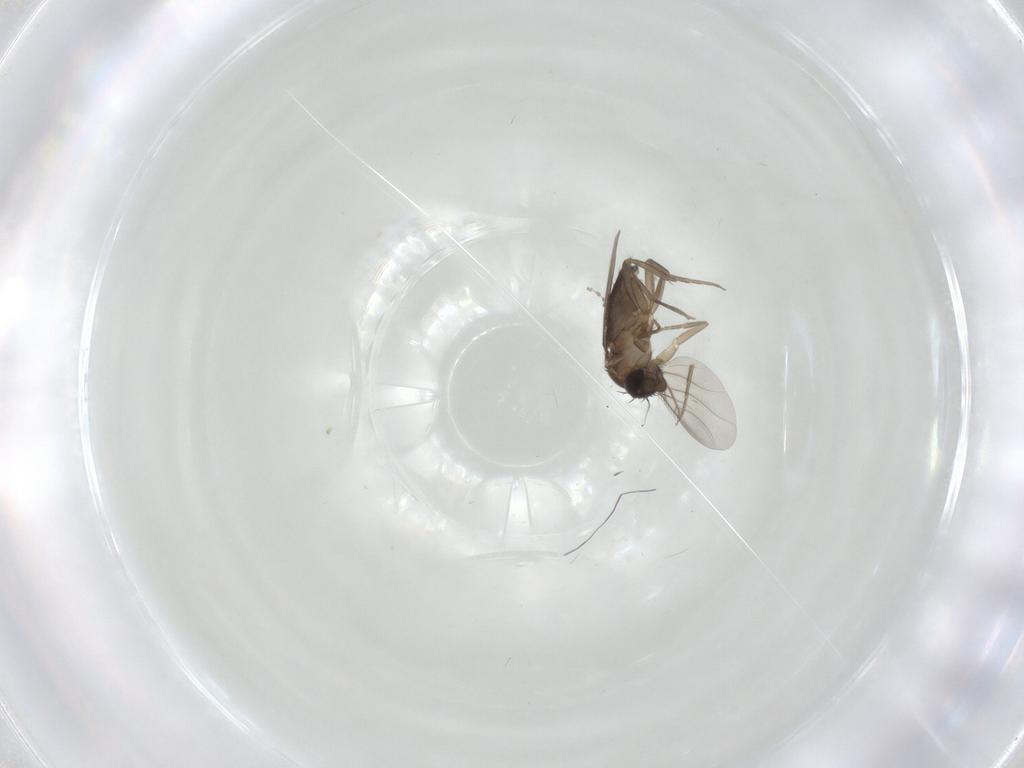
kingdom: Animalia
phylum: Arthropoda
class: Insecta
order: Diptera
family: Phoridae
